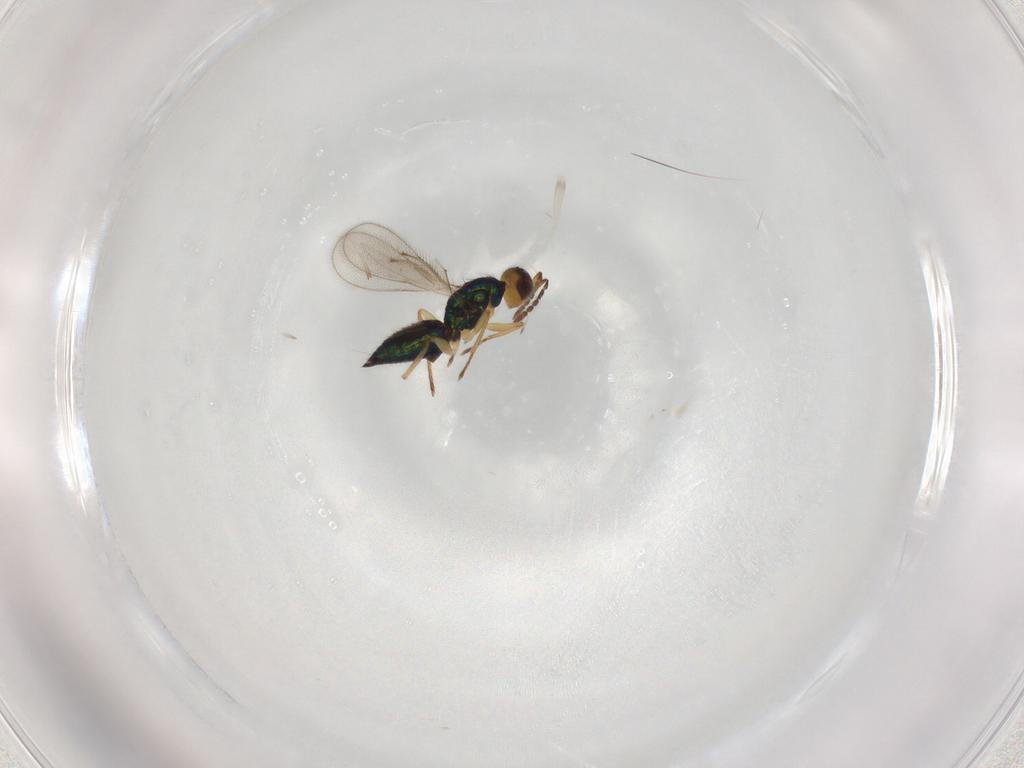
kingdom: Animalia
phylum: Arthropoda
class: Insecta
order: Hymenoptera
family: Eulophidae
